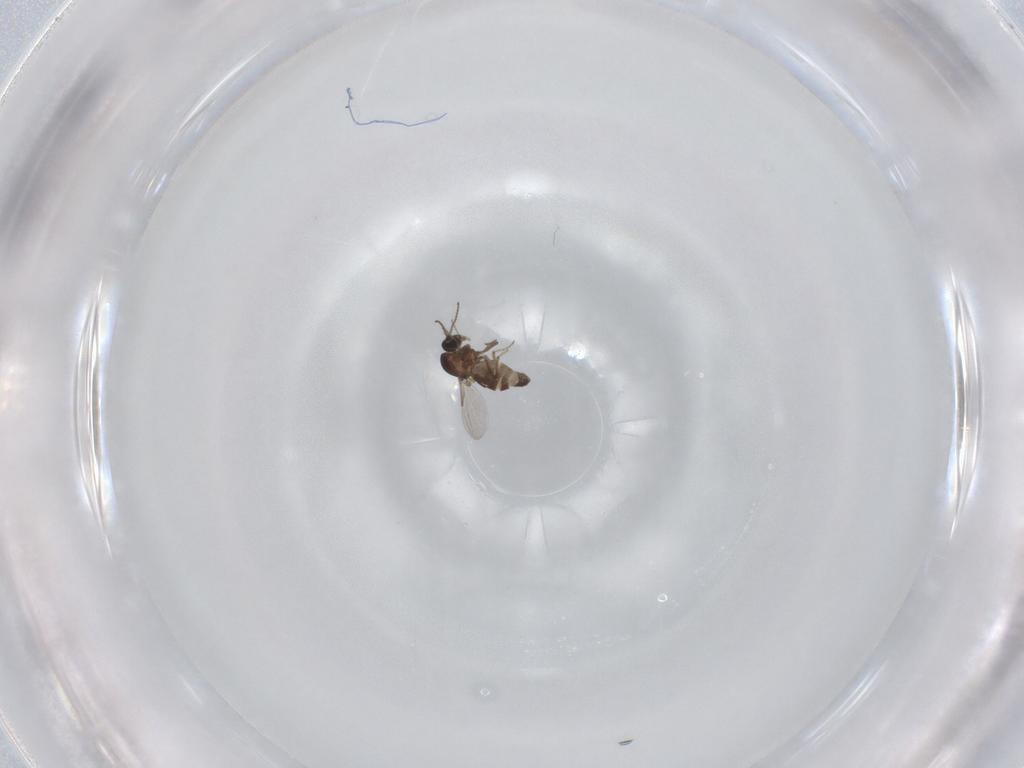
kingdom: Animalia
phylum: Arthropoda
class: Insecta
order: Diptera
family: Ceratopogonidae
